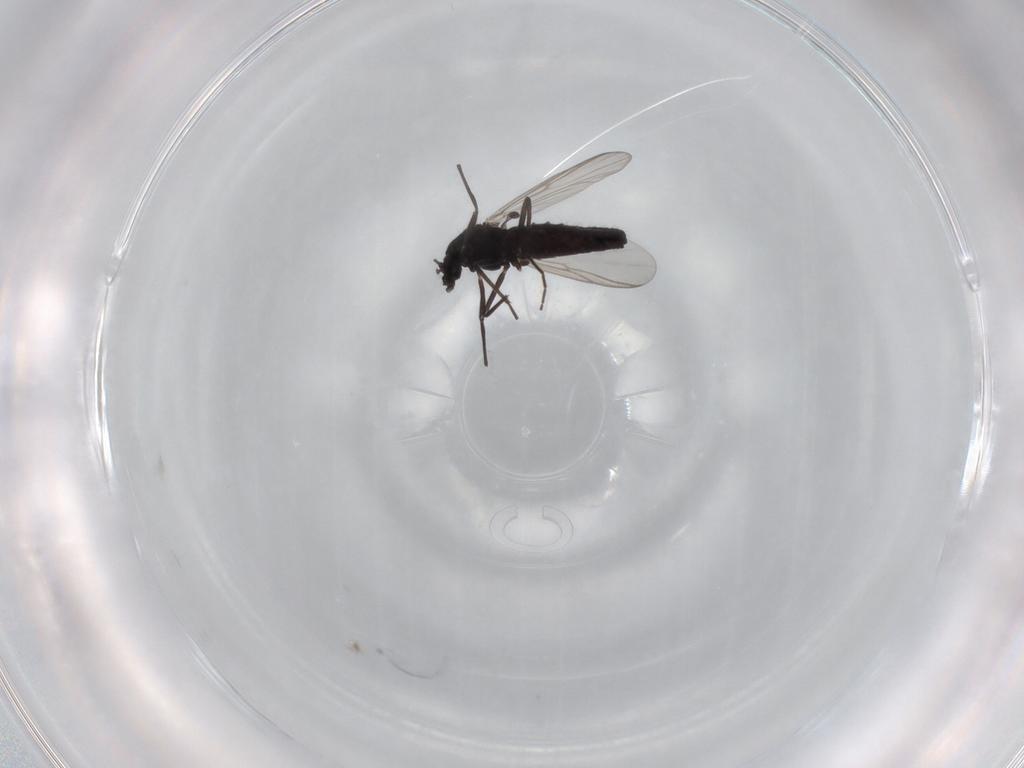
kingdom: Animalia
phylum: Arthropoda
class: Insecta
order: Diptera
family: Chironomidae
